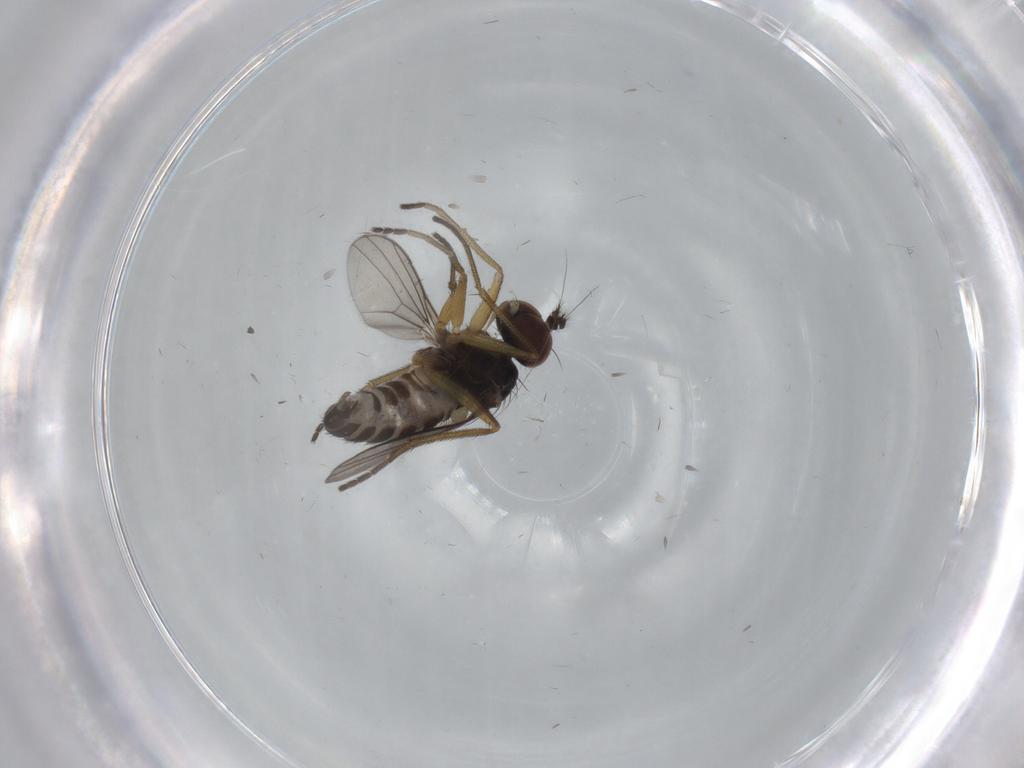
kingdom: Animalia
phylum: Arthropoda
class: Insecta
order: Diptera
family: Dolichopodidae
